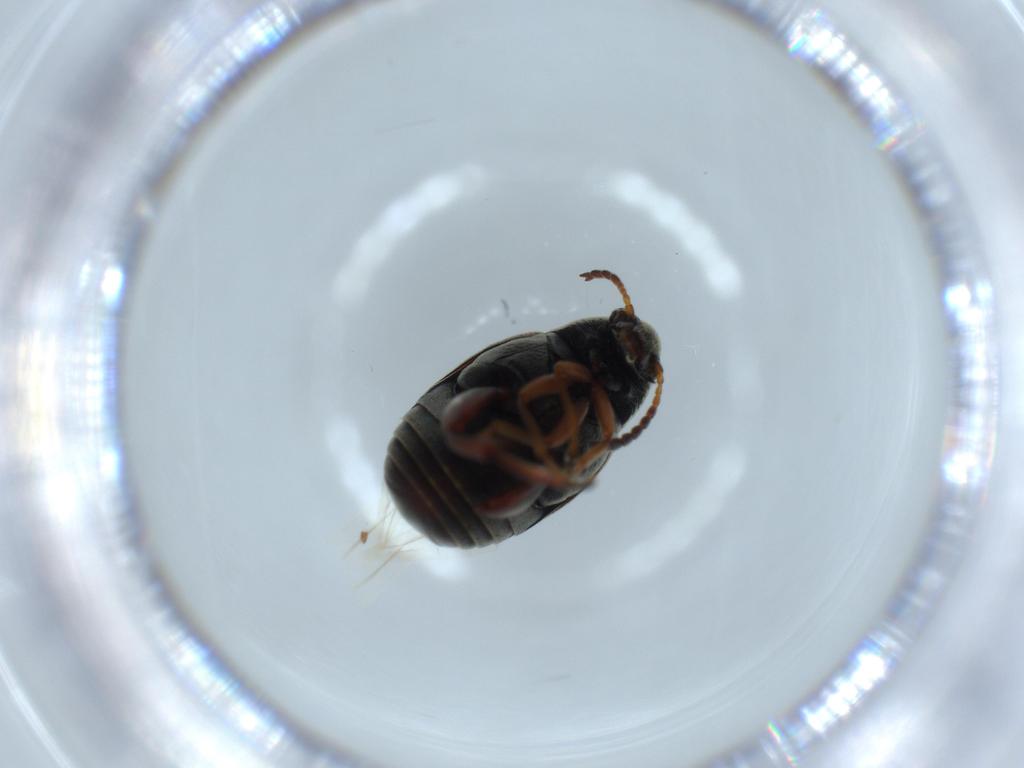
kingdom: Animalia
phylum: Arthropoda
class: Insecta
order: Coleoptera
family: Chrysomelidae
